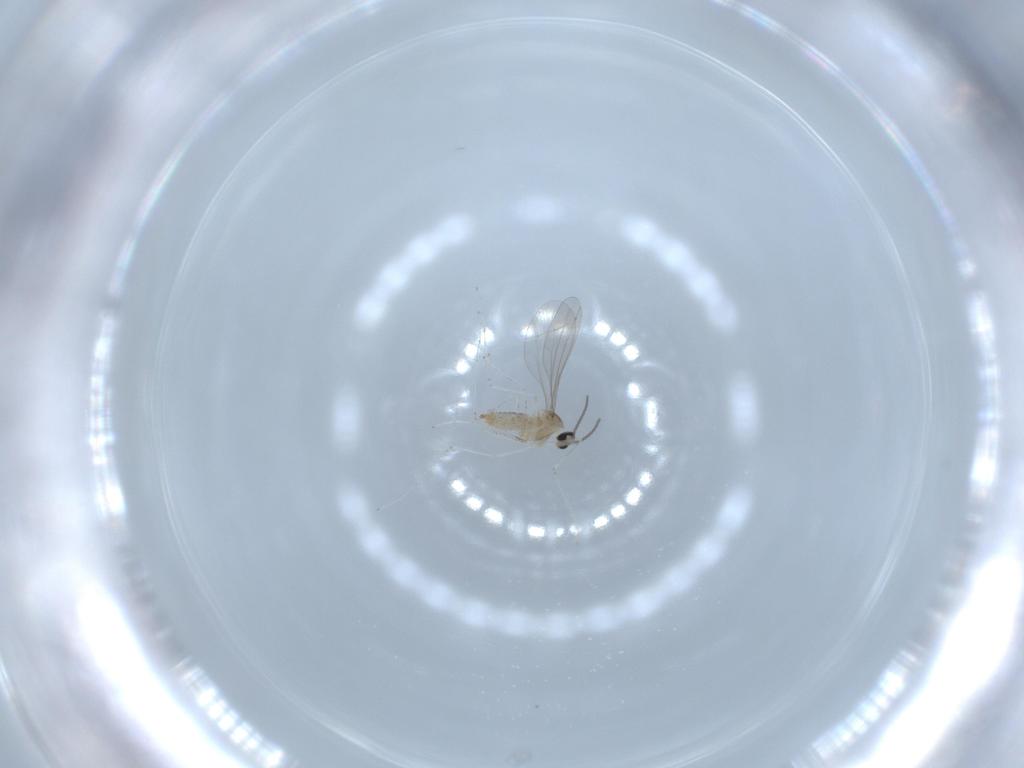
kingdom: Animalia
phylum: Arthropoda
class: Insecta
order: Diptera
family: Cecidomyiidae
